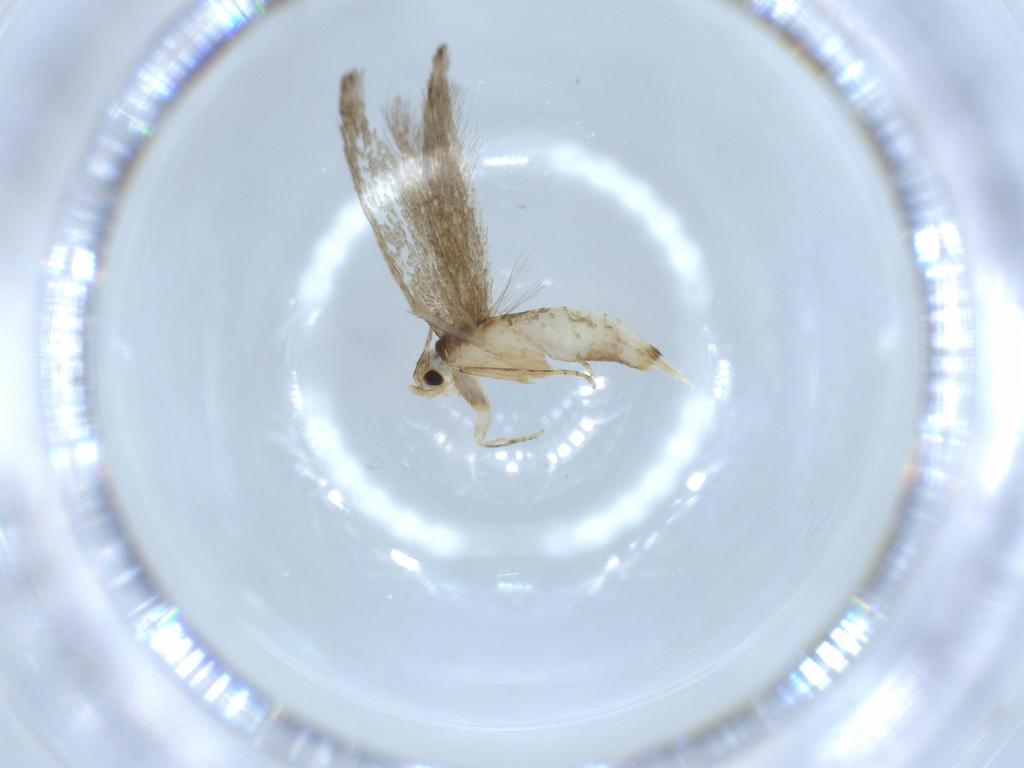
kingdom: Animalia
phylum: Arthropoda
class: Insecta
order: Lepidoptera
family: Tineidae
